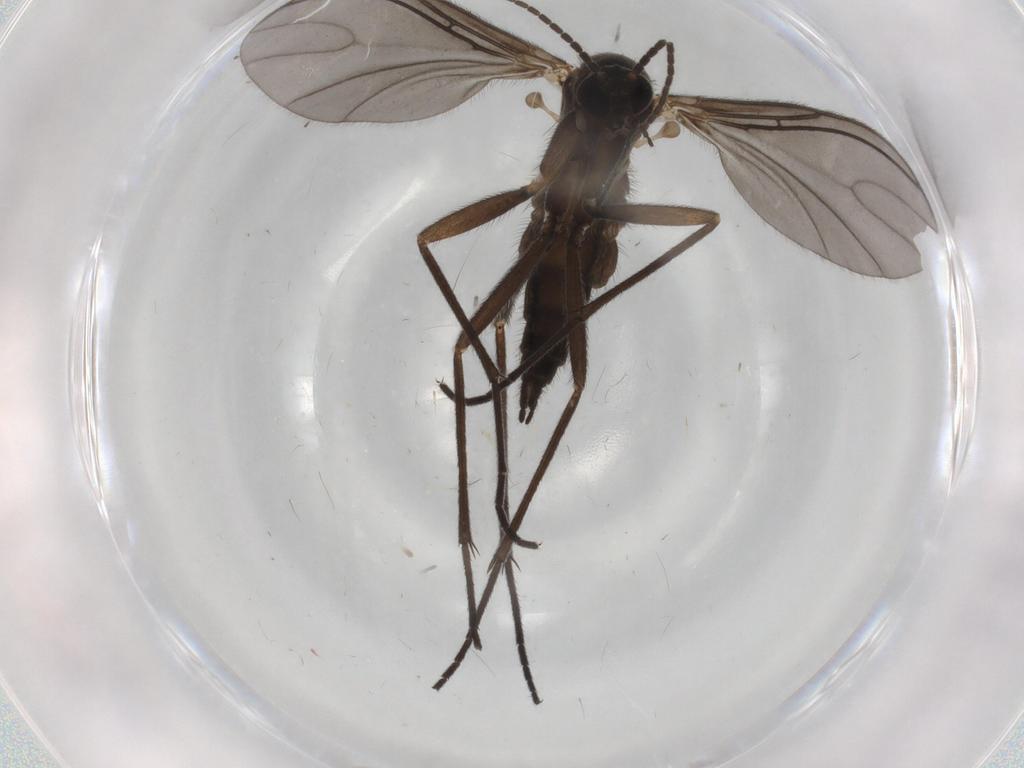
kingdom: Animalia
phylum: Arthropoda
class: Insecta
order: Diptera
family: Sciaridae
